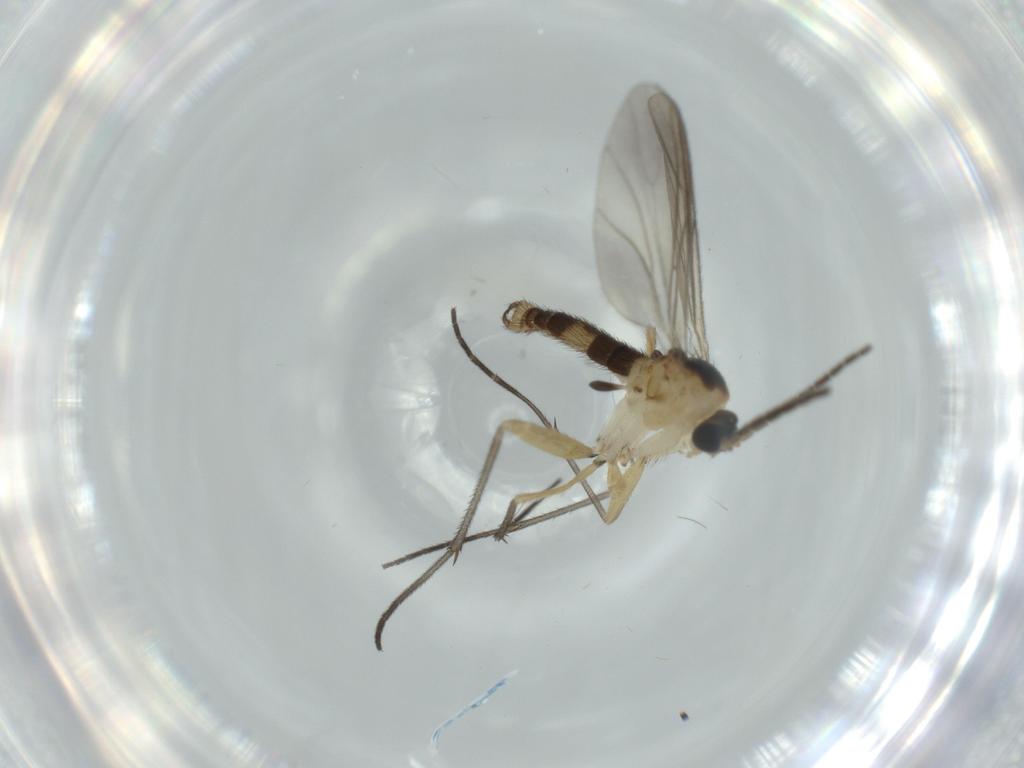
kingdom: Animalia
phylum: Arthropoda
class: Insecta
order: Diptera
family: Sciaridae
